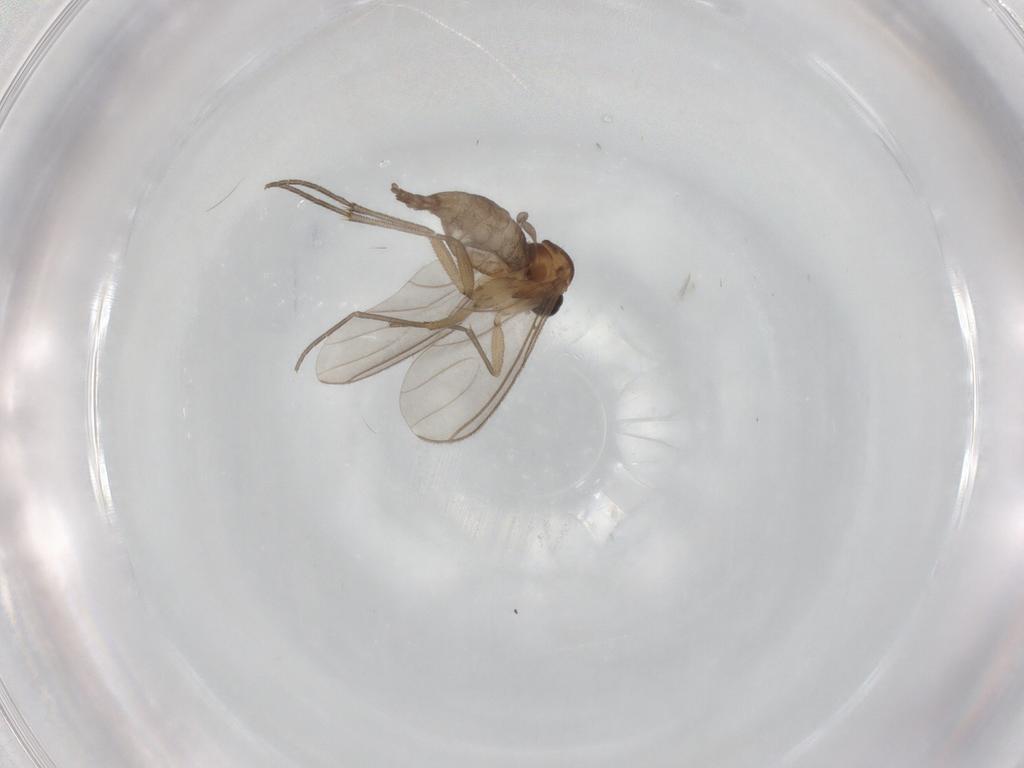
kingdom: Animalia
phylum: Arthropoda
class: Insecta
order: Diptera
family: Sciaridae
